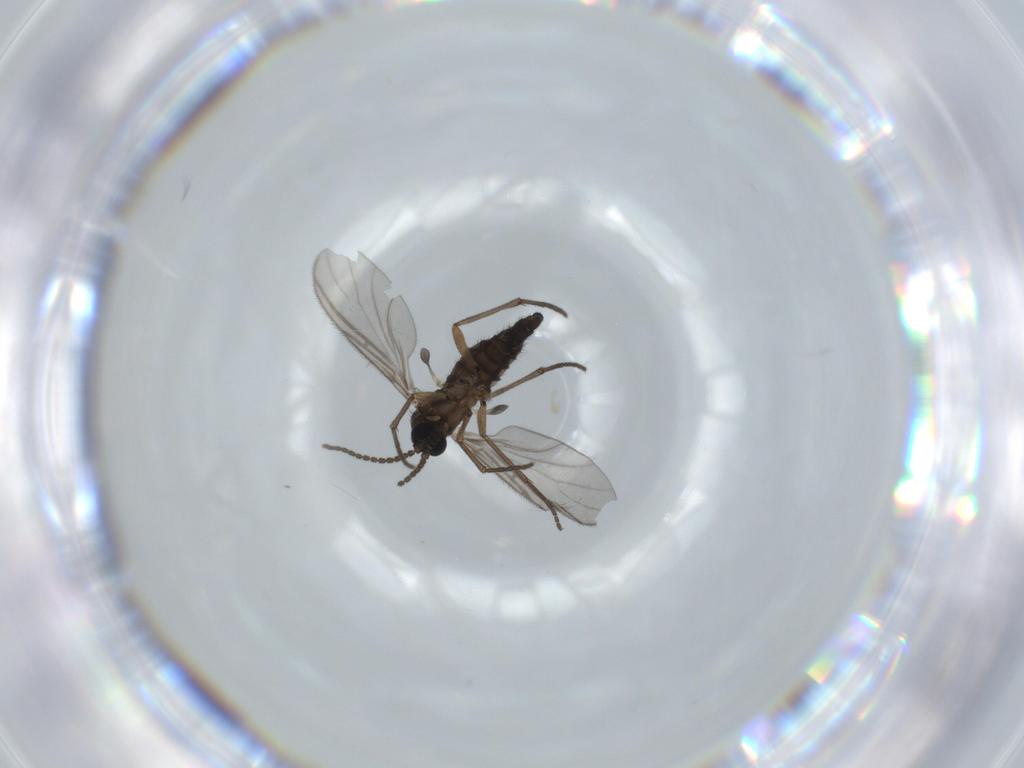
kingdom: Animalia
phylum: Arthropoda
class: Insecta
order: Diptera
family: Sciaridae
